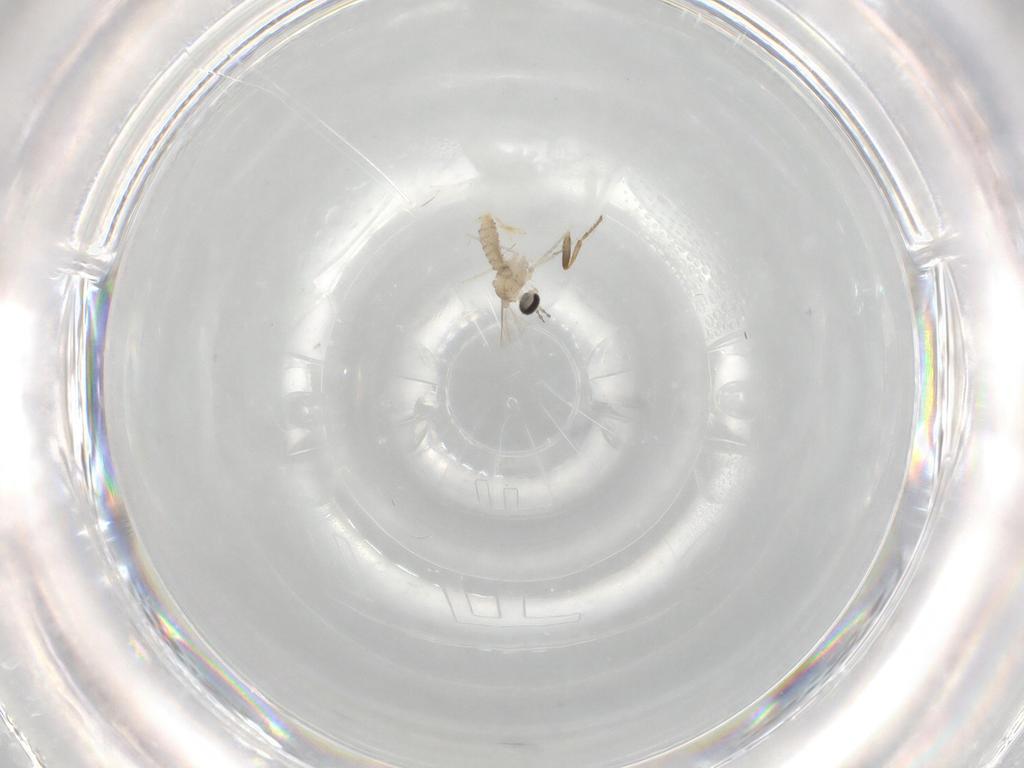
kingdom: Animalia
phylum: Arthropoda
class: Insecta
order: Diptera
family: Cecidomyiidae
